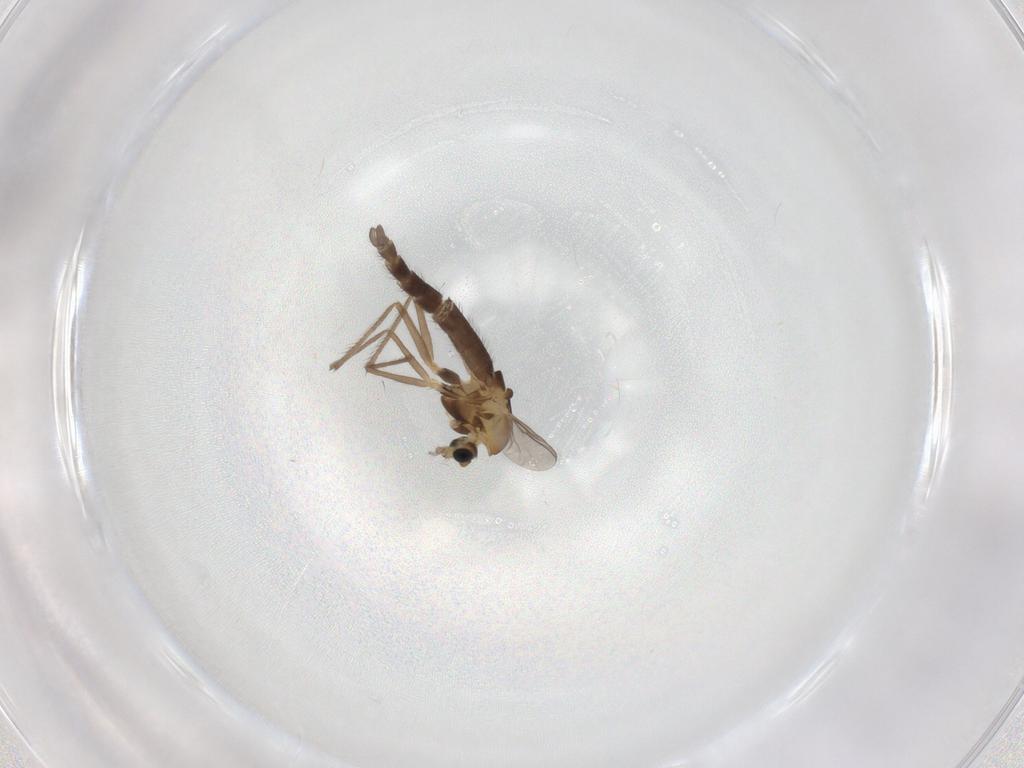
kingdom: Animalia
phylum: Arthropoda
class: Insecta
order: Diptera
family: Chironomidae
